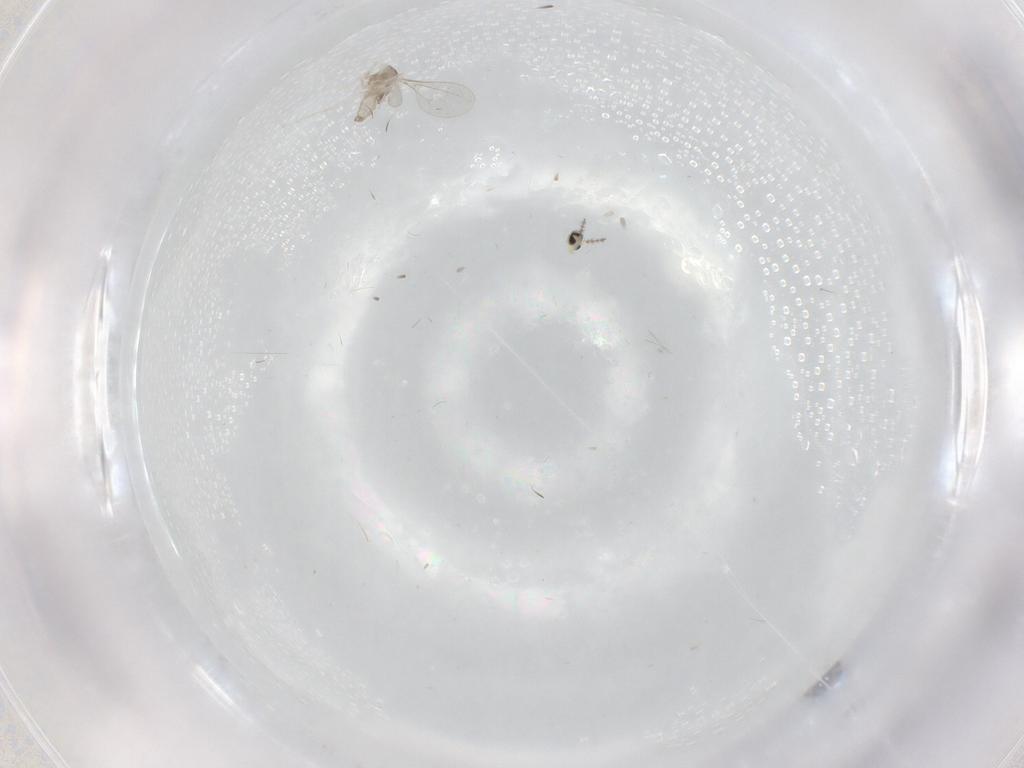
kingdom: Animalia
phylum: Arthropoda
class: Insecta
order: Diptera
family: Cecidomyiidae
